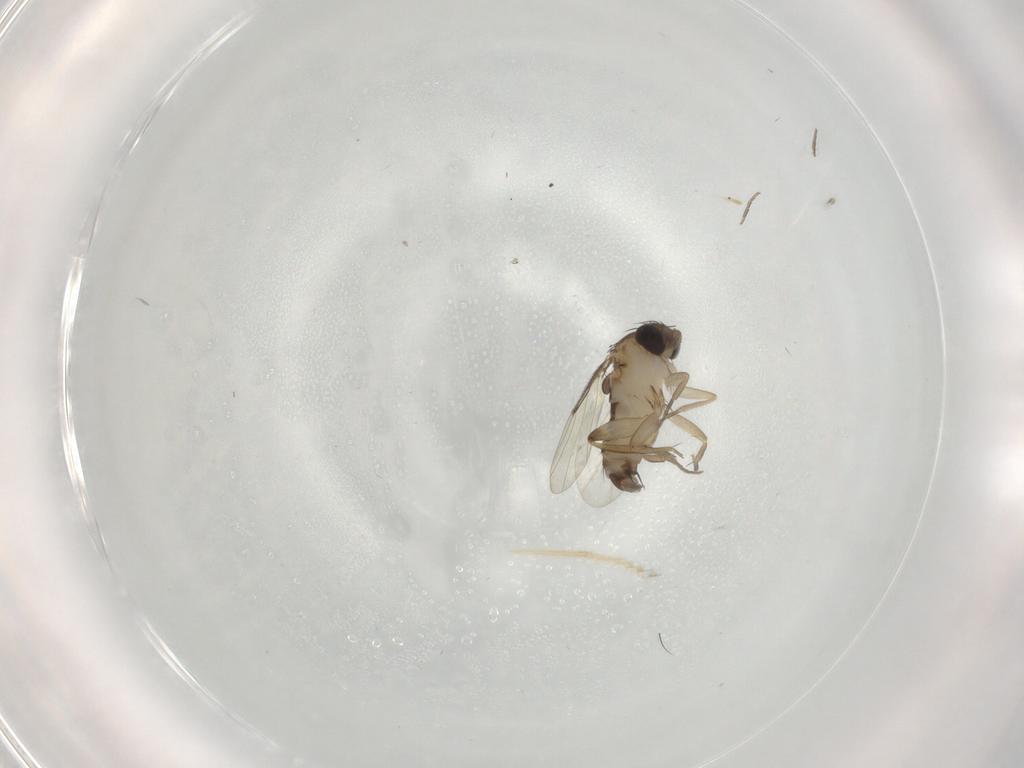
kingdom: Animalia
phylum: Arthropoda
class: Insecta
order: Diptera
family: Phoridae
